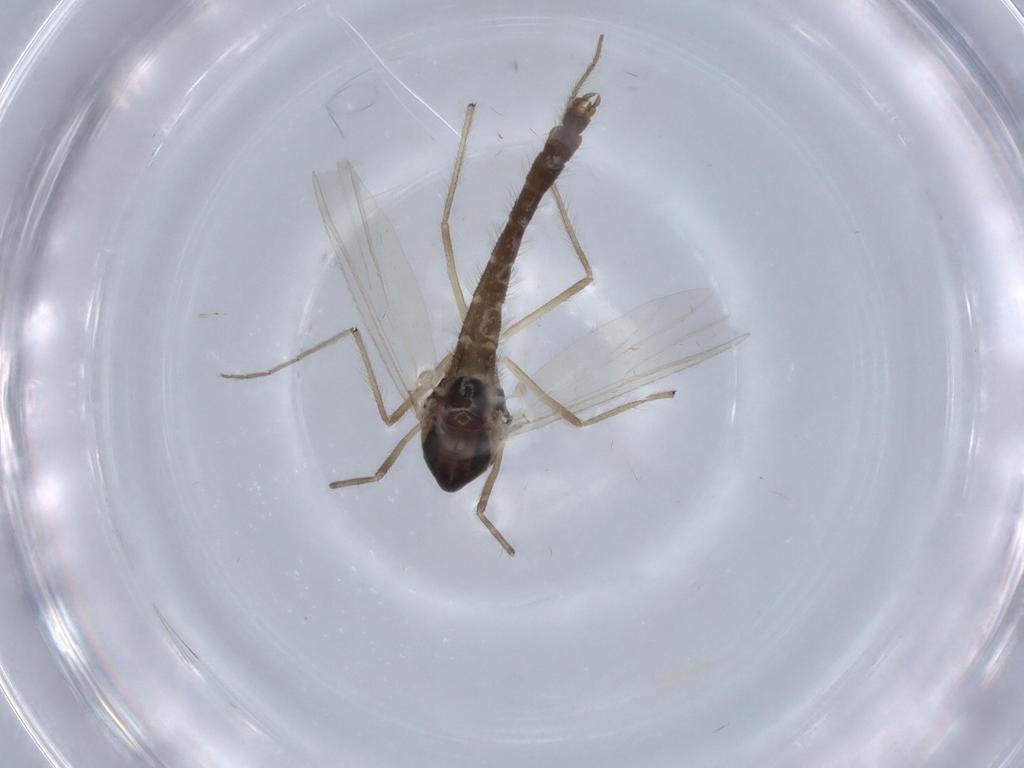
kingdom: Animalia
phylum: Arthropoda
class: Insecta
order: Diptera
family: Chironomidae
